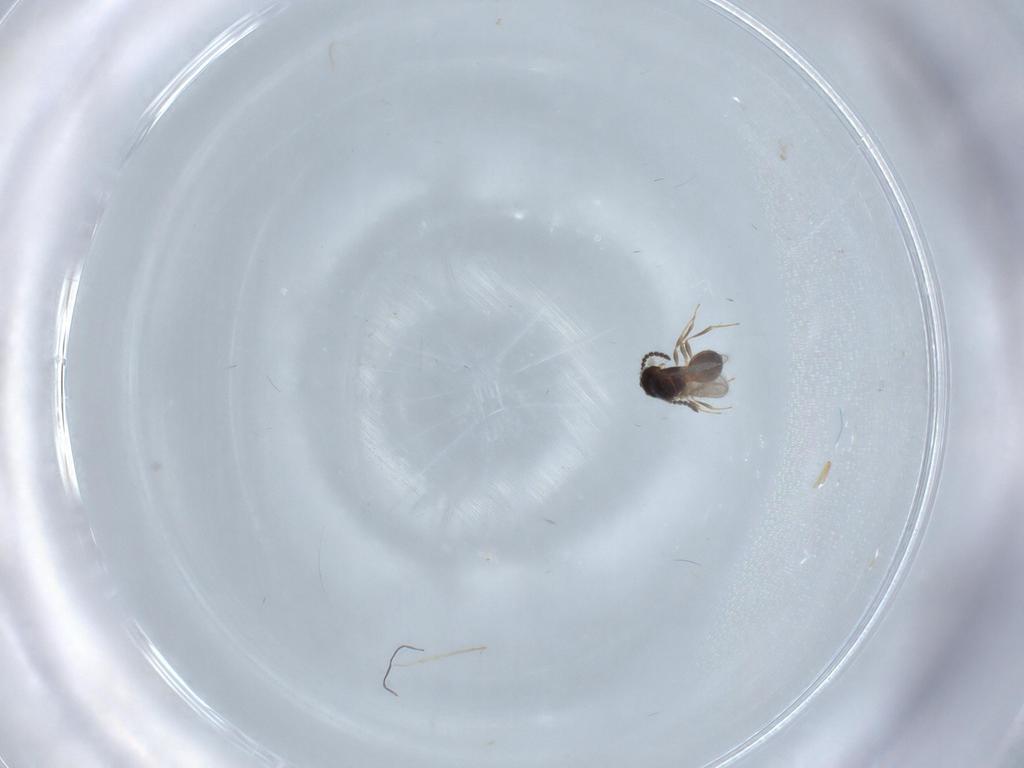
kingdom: Animalia
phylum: Arthropoda
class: Insecta
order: Hymenoptera
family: Scelionidae
